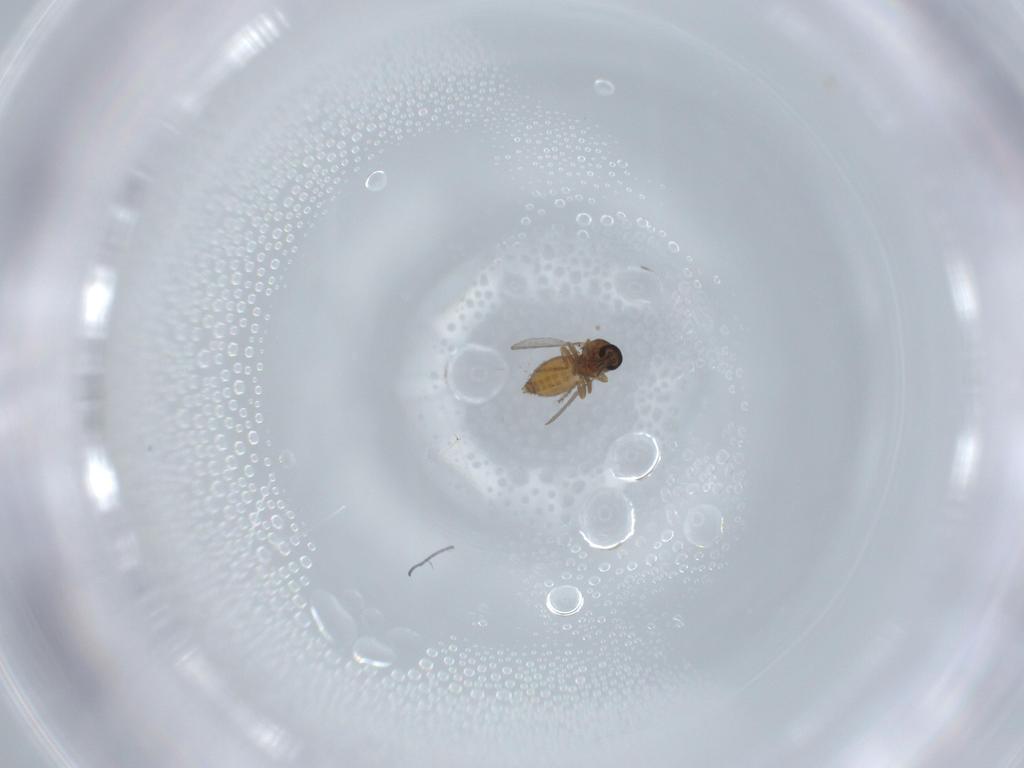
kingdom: Animalia
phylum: Arthropoda
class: Insecta
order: Diptera
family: Ceratopogonidae
